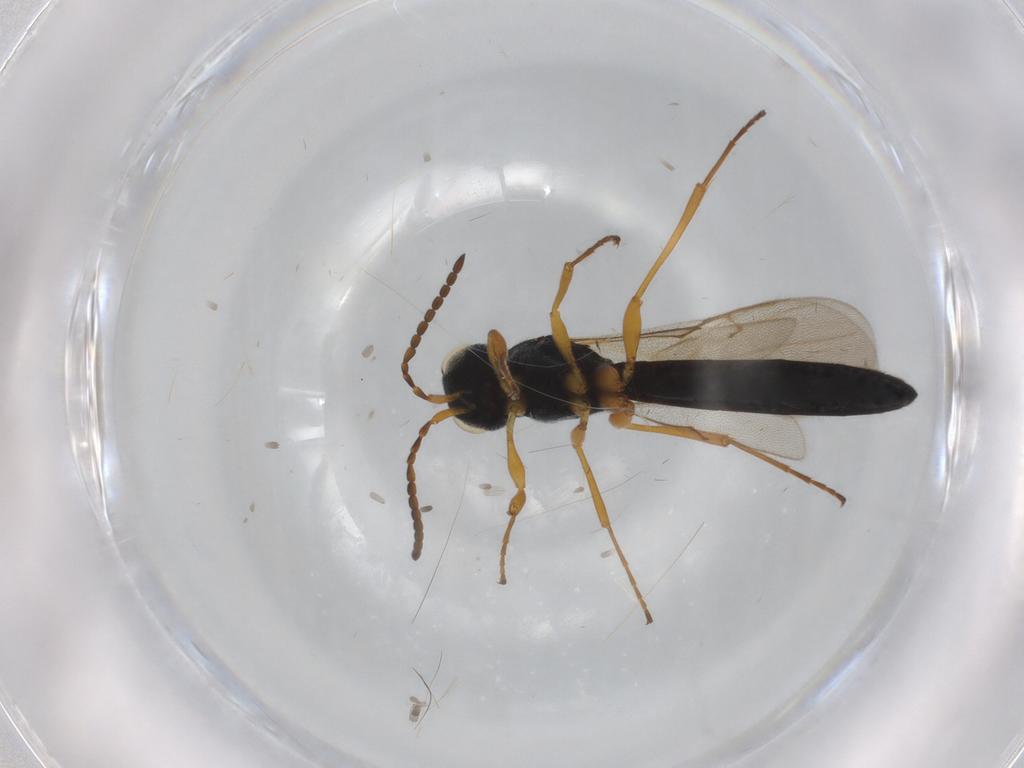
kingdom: Animalia
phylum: Arthropoda
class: Insecta
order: Hymenoptera
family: Scelionidae
